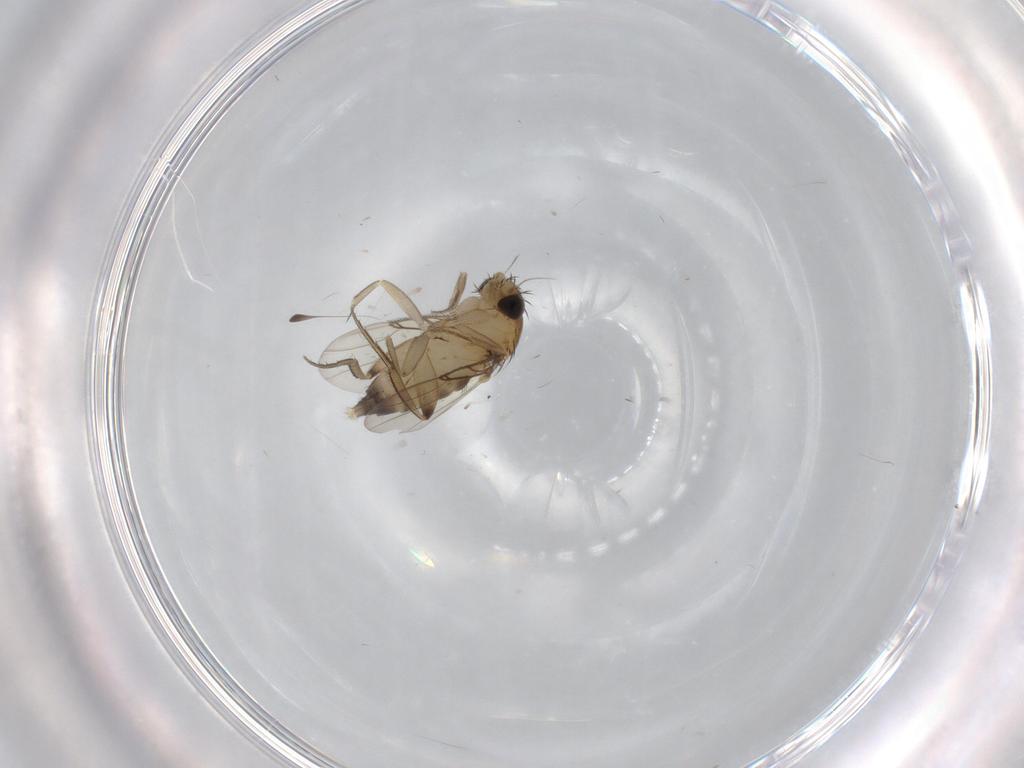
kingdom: Animalia
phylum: Arthropoda
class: Insecta
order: Diptera
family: Phoridae
